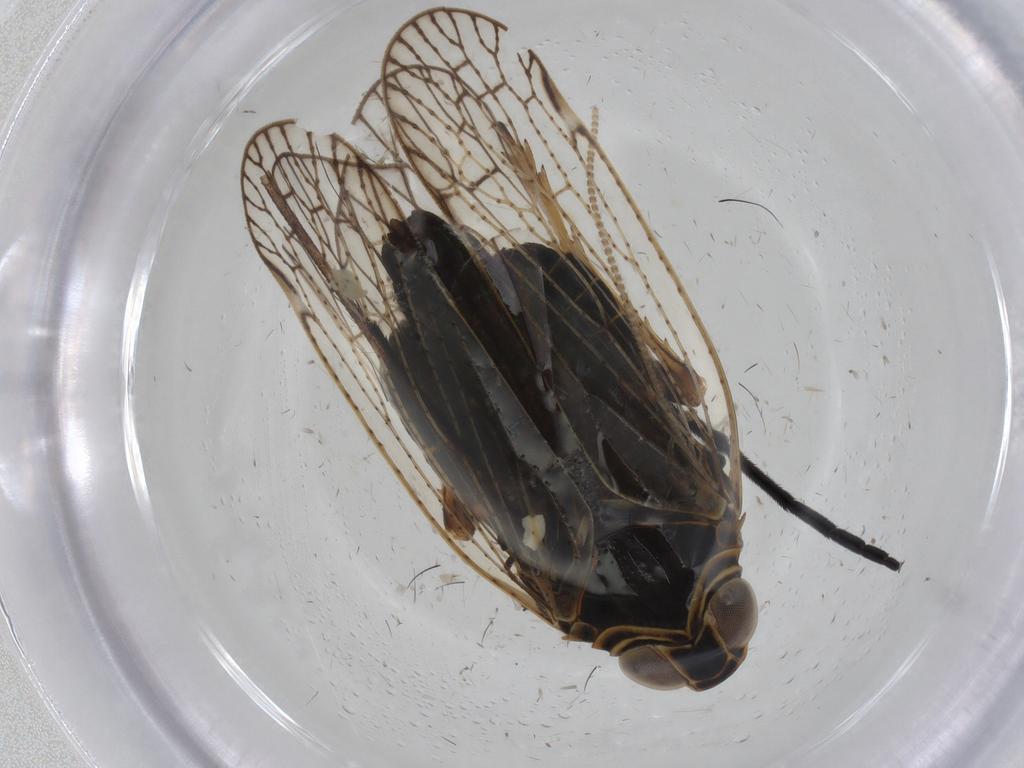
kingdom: Animalia
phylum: Arthropoda
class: Insecta
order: Hemiptera
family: Cixiidae
